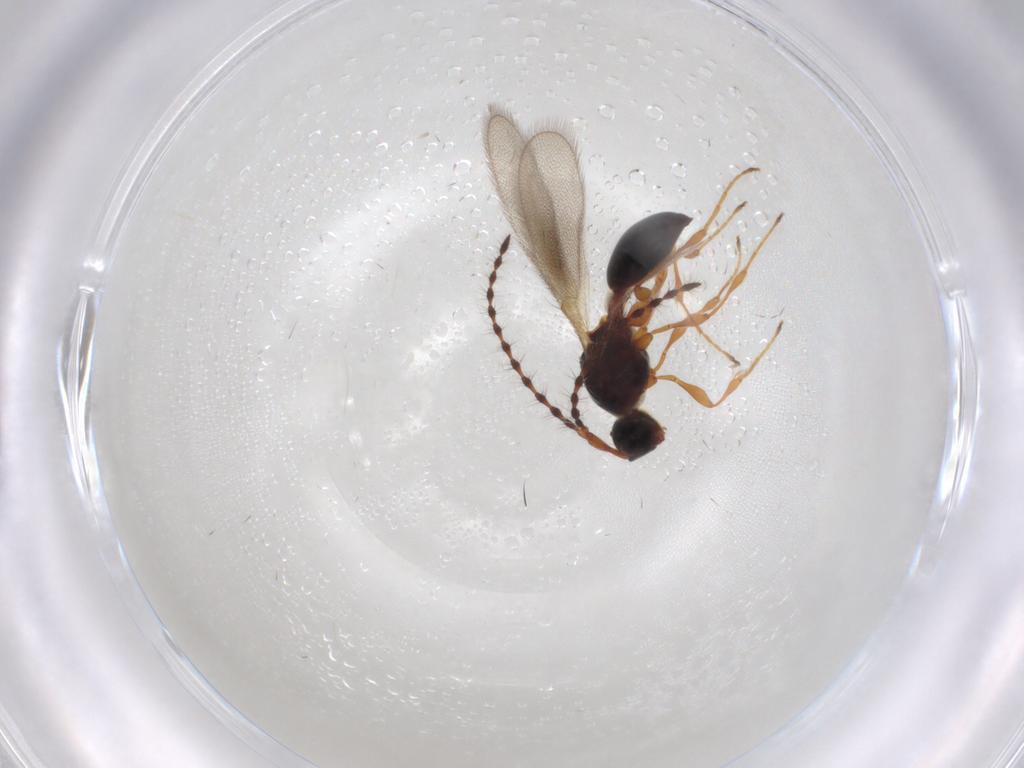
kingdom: Animalia
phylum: Arthropoda
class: Insecta
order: Hymenoptera
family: Diapriidae
